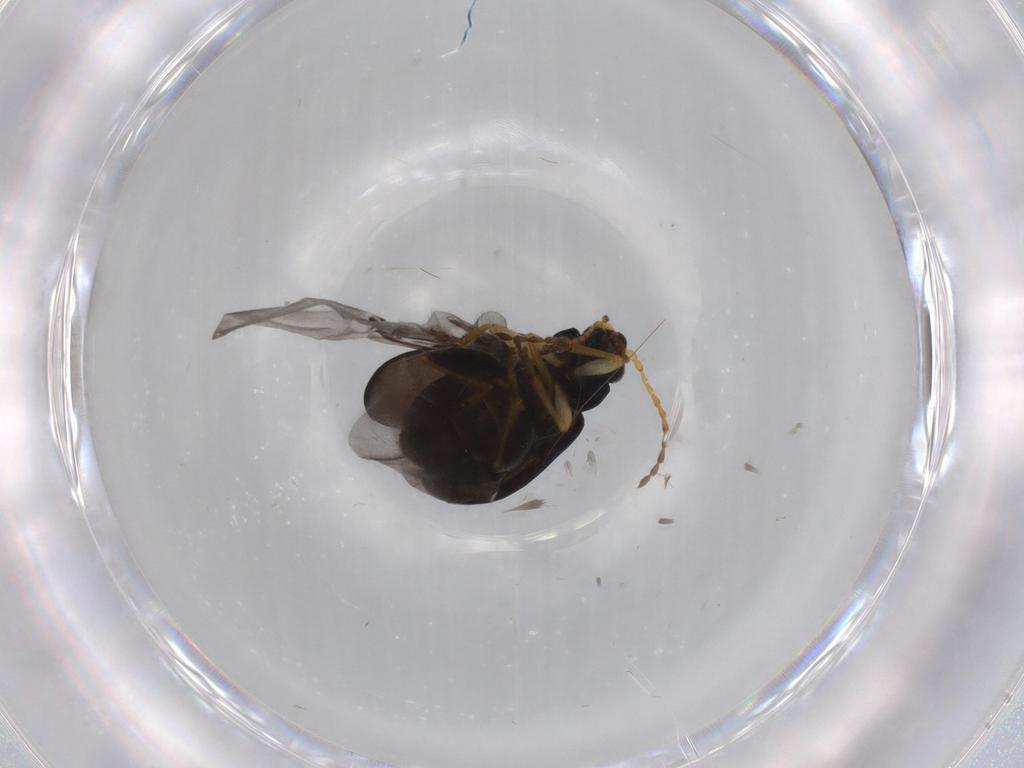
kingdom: Animalia
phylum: Arthropoda
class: Insecta
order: Coleoptera
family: Chrysomelidae
